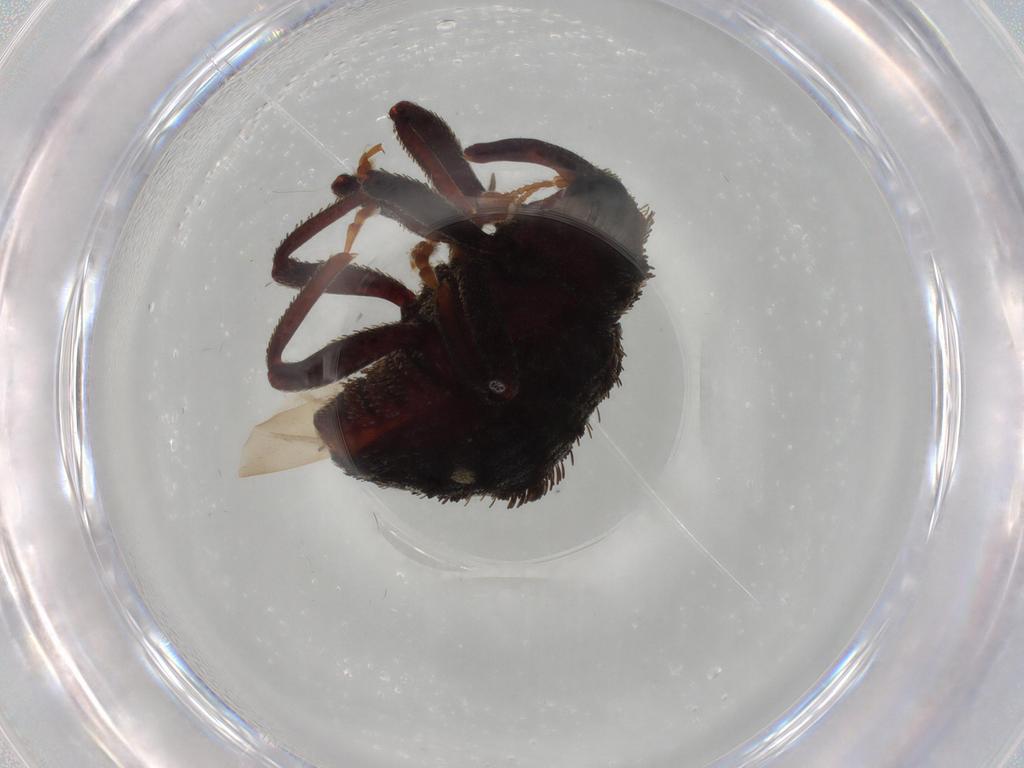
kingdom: Animalia
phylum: Arthropoda
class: Insecta
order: Coleoptera
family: Curculionidae
